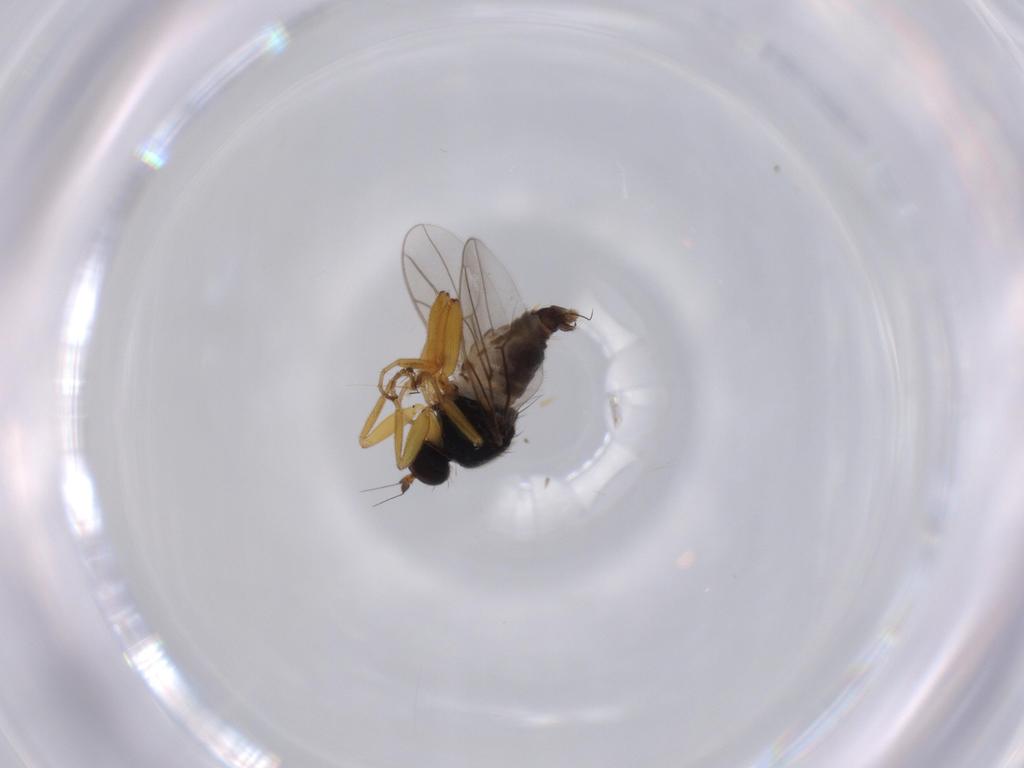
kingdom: Animalia
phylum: Arthropoda
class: Insecta
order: Diptera
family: Hybotidae
